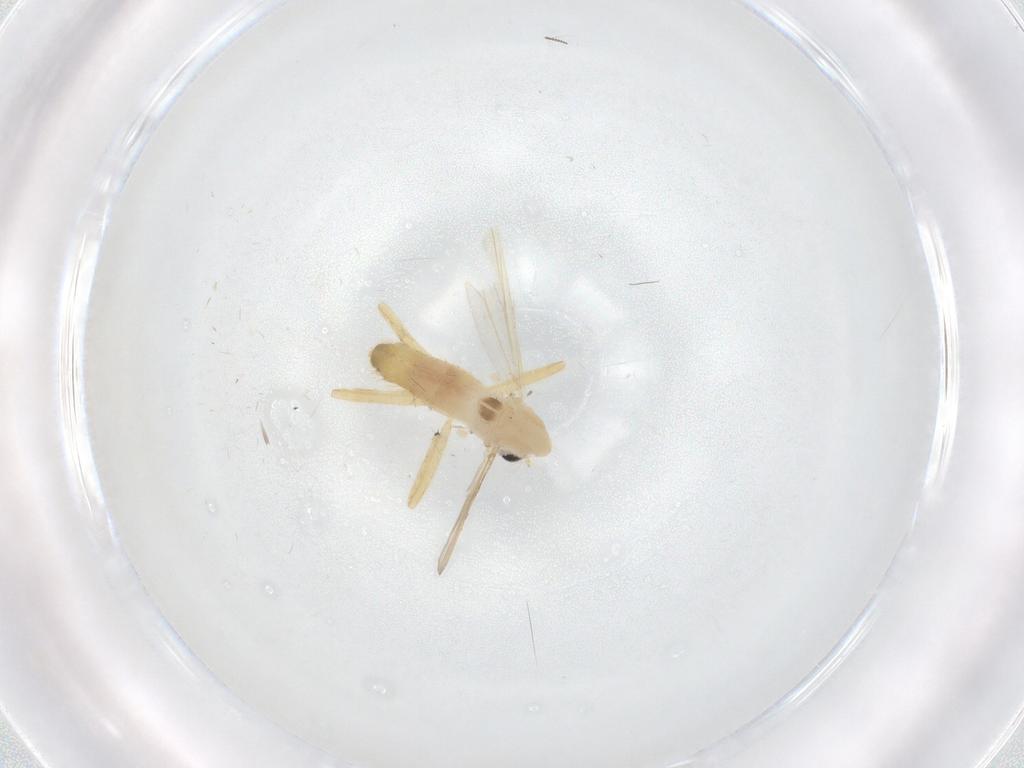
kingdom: Animalia
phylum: Arthropoda
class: Insecta
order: Diptera
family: Chironomidae
